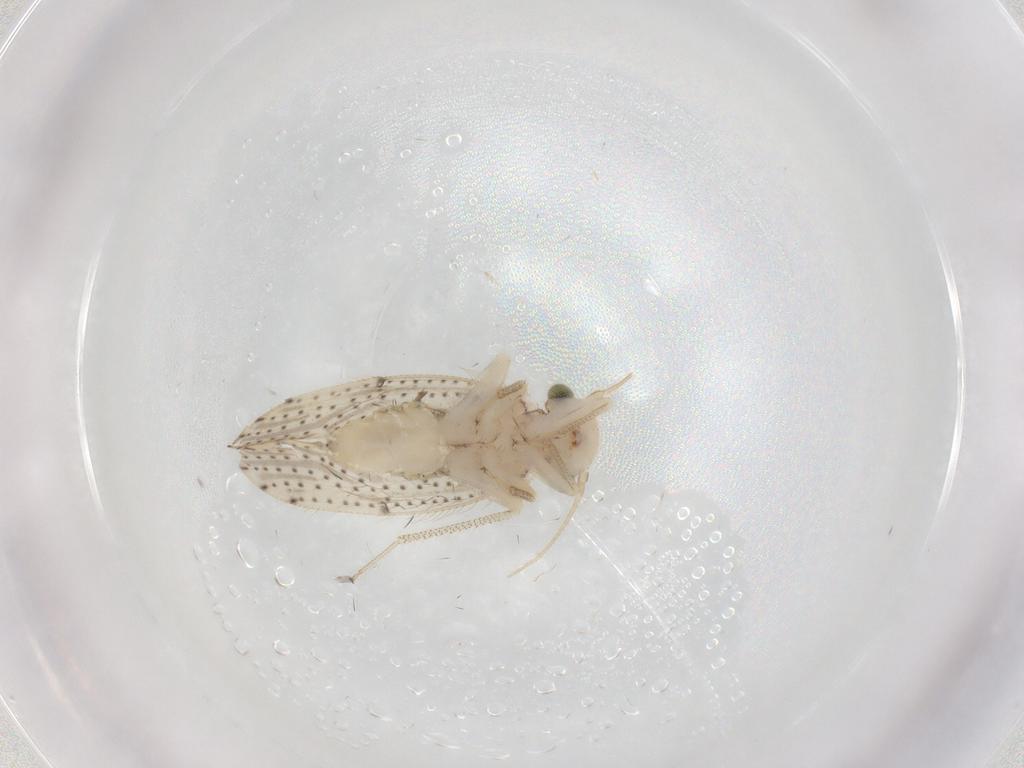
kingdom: Animalia
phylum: Arthropoda
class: Insecta
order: Psocodea
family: Myopsocidae
